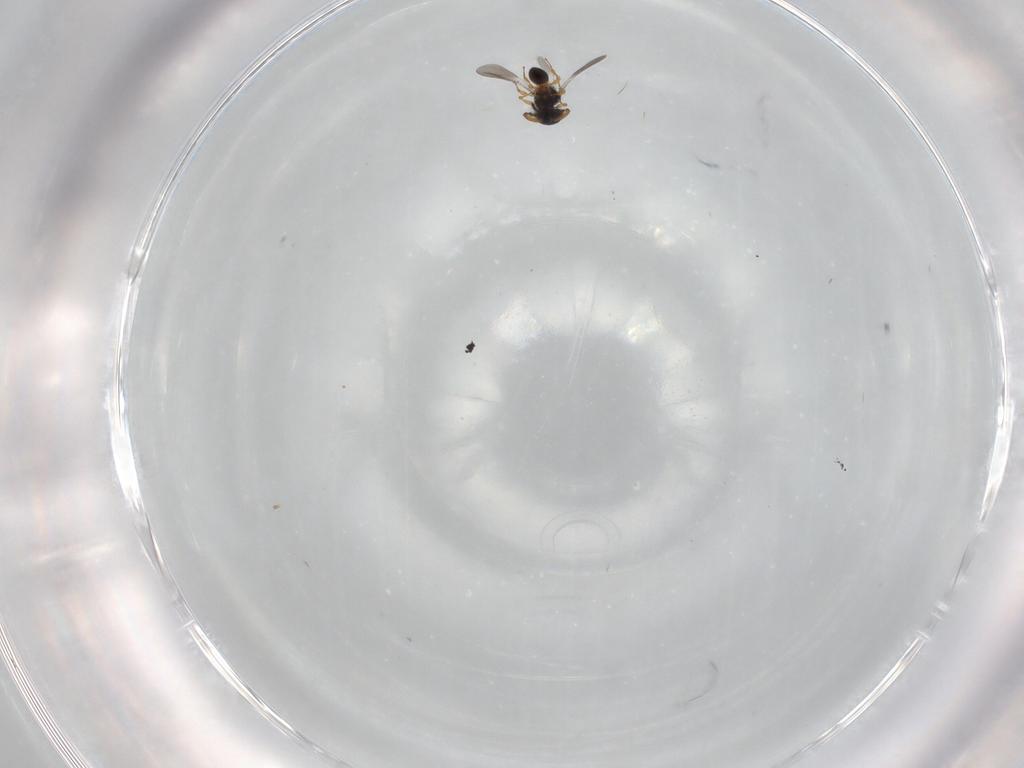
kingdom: Animalia
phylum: Arthropoda
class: Insecta
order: Hymenoptera
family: Platygastridae
